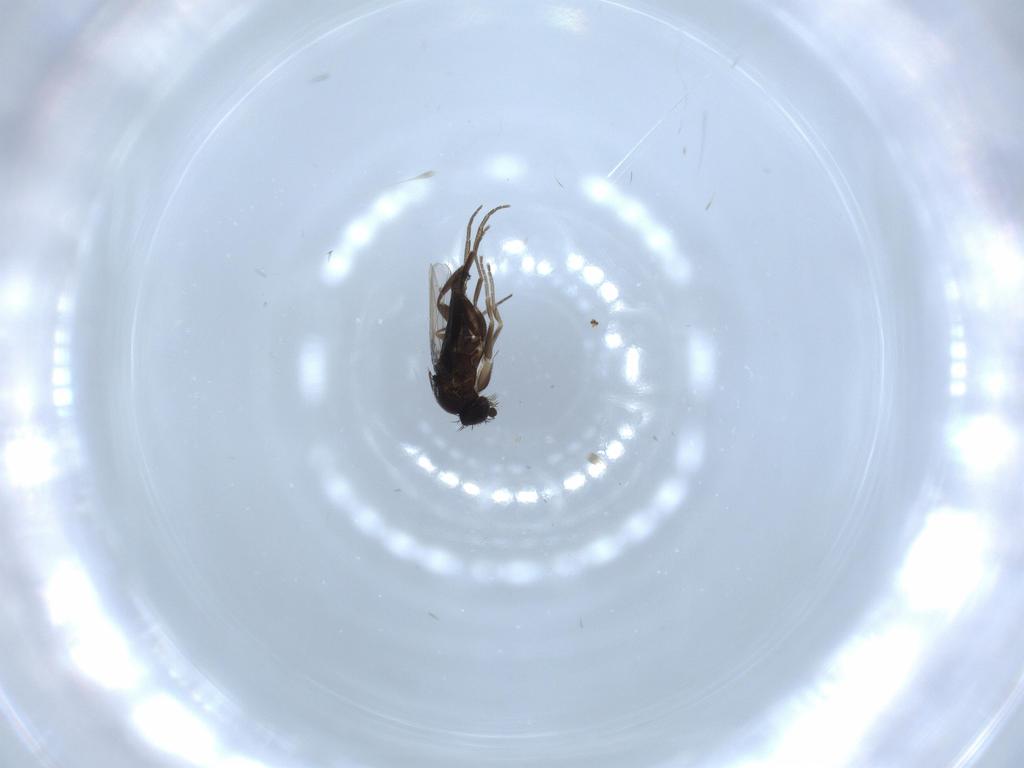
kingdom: Animalia
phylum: Arthropoda
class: Insecta
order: Diptera
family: Phoridae
